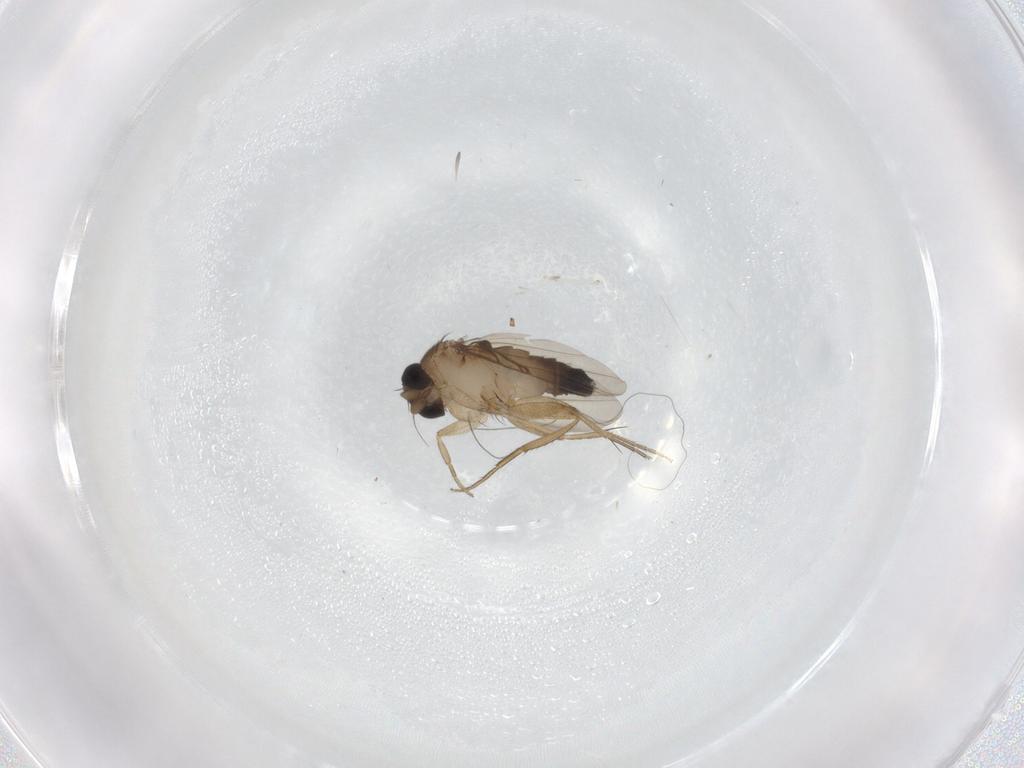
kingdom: Animalia
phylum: Arthropoda
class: Insecta
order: Diptera
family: Phoridae
